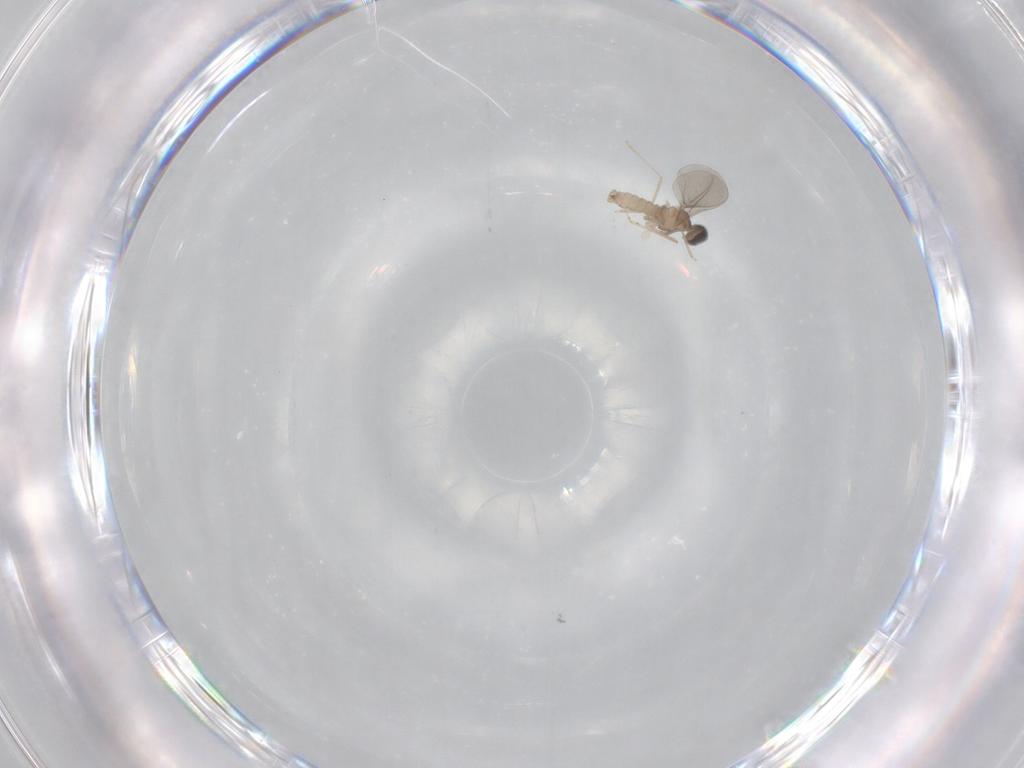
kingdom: Animalia
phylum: Arthropoda
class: Insecta
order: Diptera
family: Cecidomyiidae
